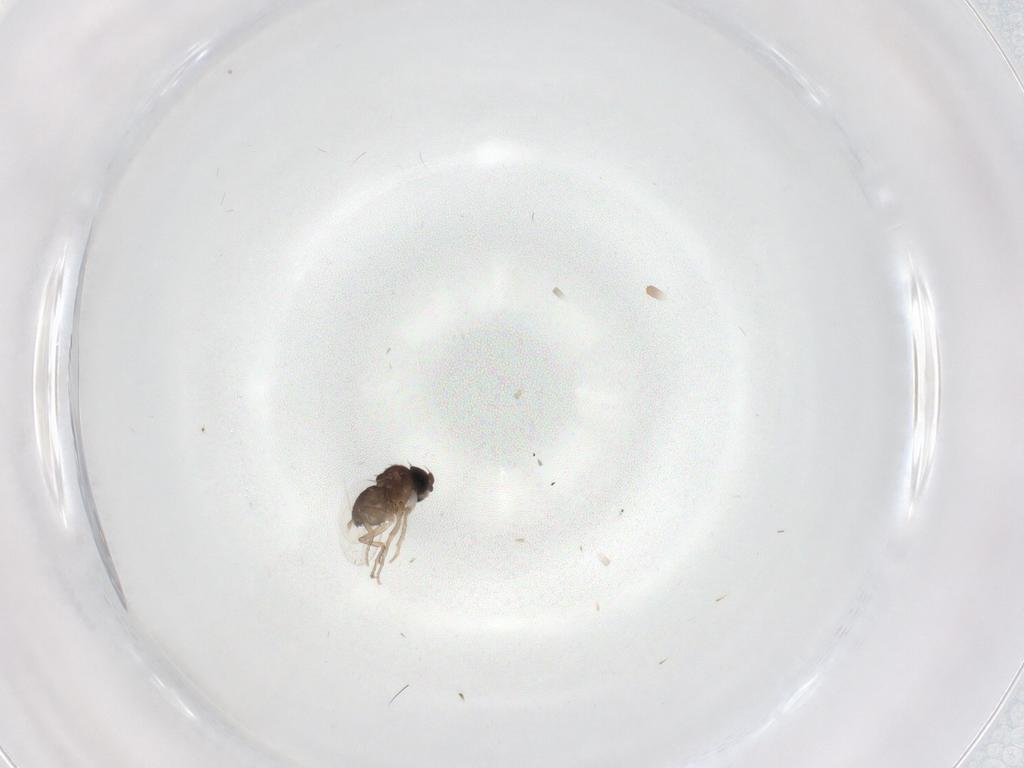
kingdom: Animalia
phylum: Arthropoda
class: Insecta
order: Diptera
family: Phoridae
